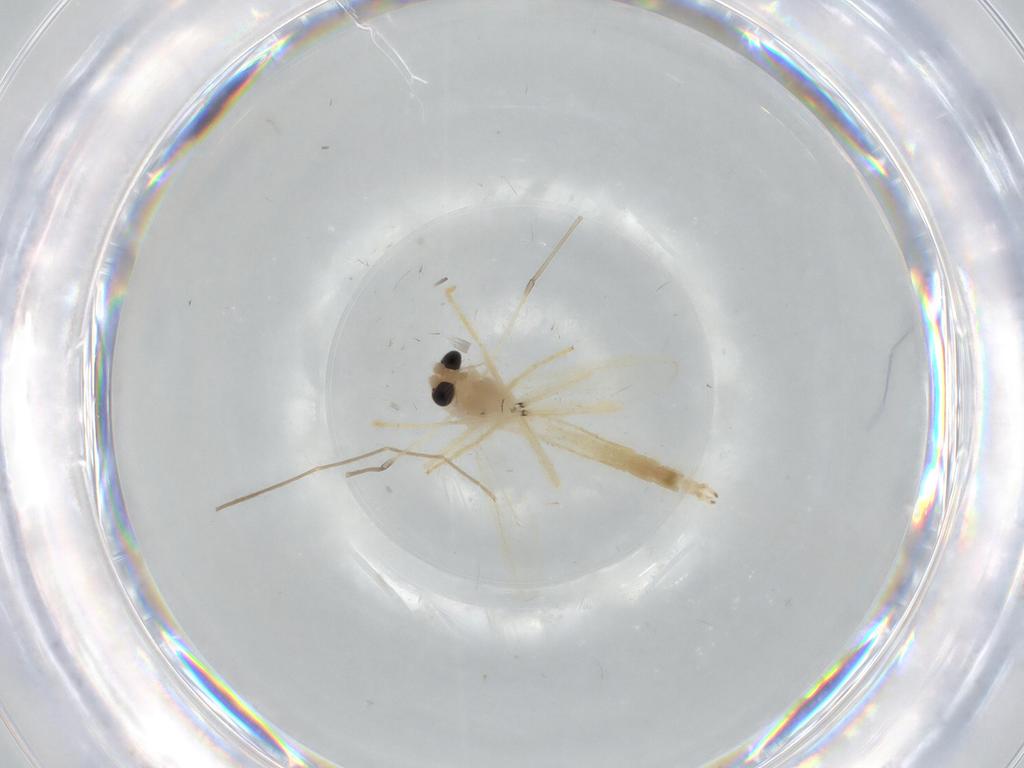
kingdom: Animalia
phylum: Arthropoda
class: Insecta
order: Diptera
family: Chironomidae
